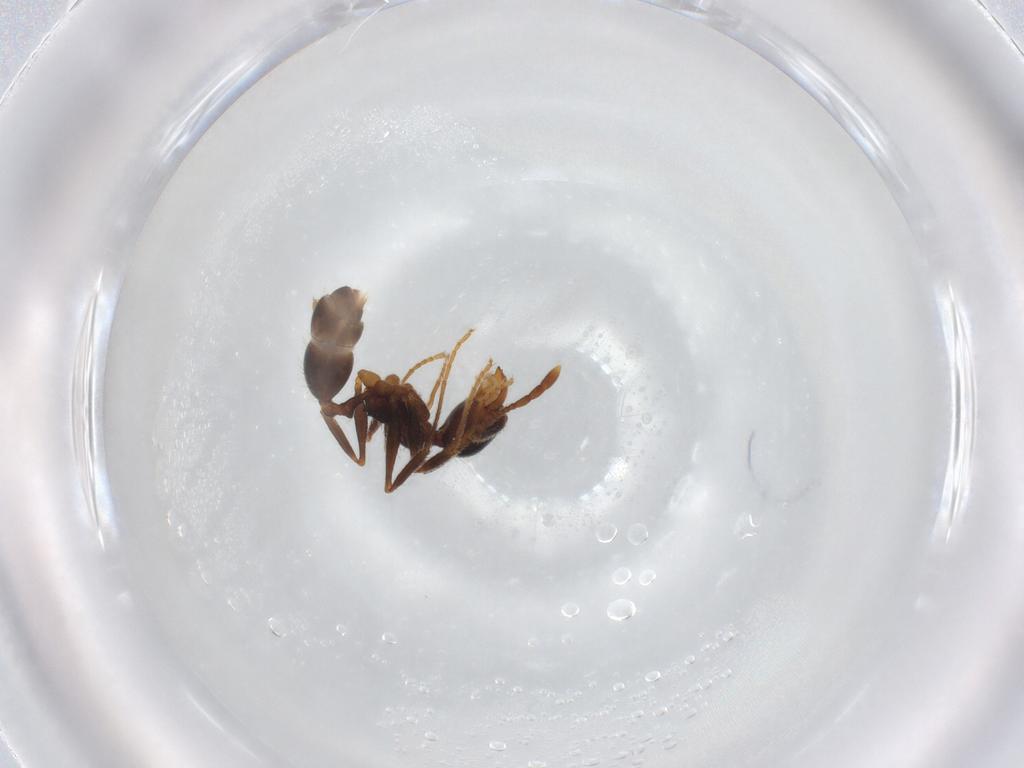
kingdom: Animalia
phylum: Arthropoda
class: Insecta
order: Hymenoptera
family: Formicidae
